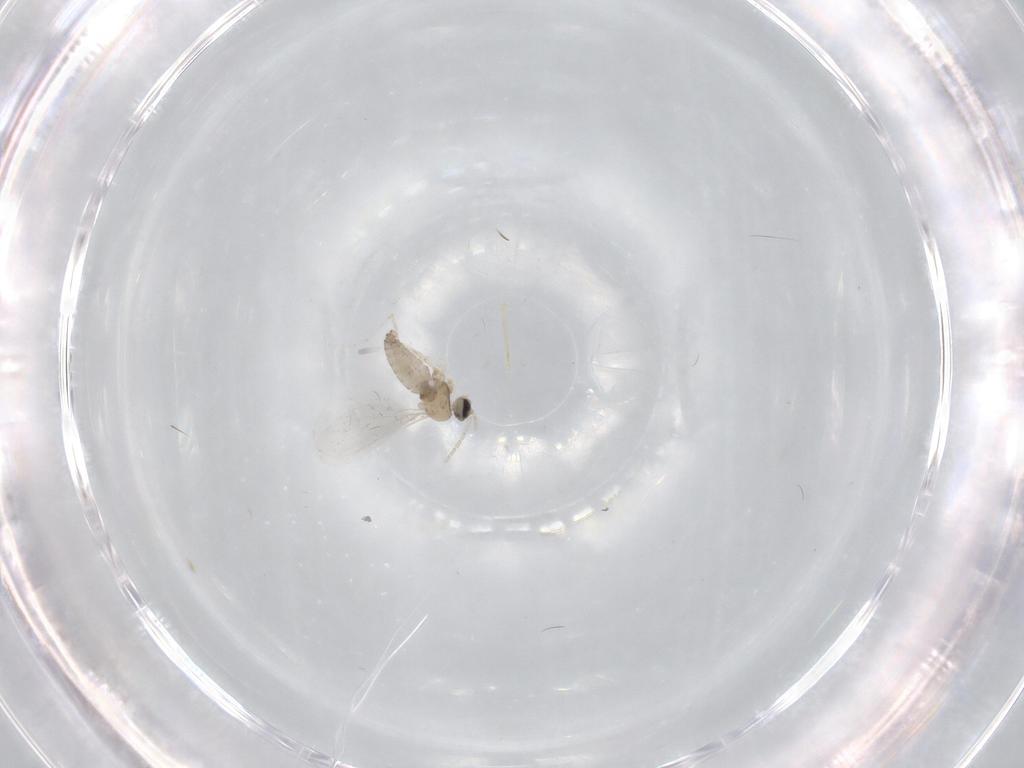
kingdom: Animalia
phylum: Arthropoda
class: Insecta
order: Diptera
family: Cecidomyiidae
